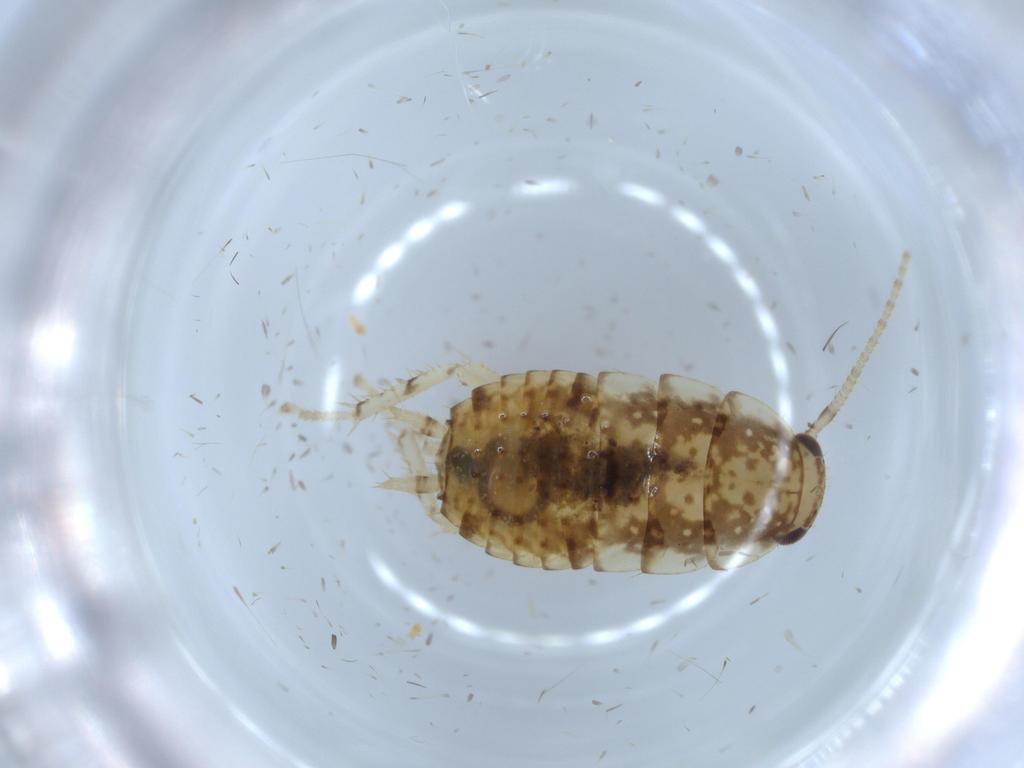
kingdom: Animalia
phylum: Arthropoda
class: Insecta
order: Blattodea
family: Ectobiidae
